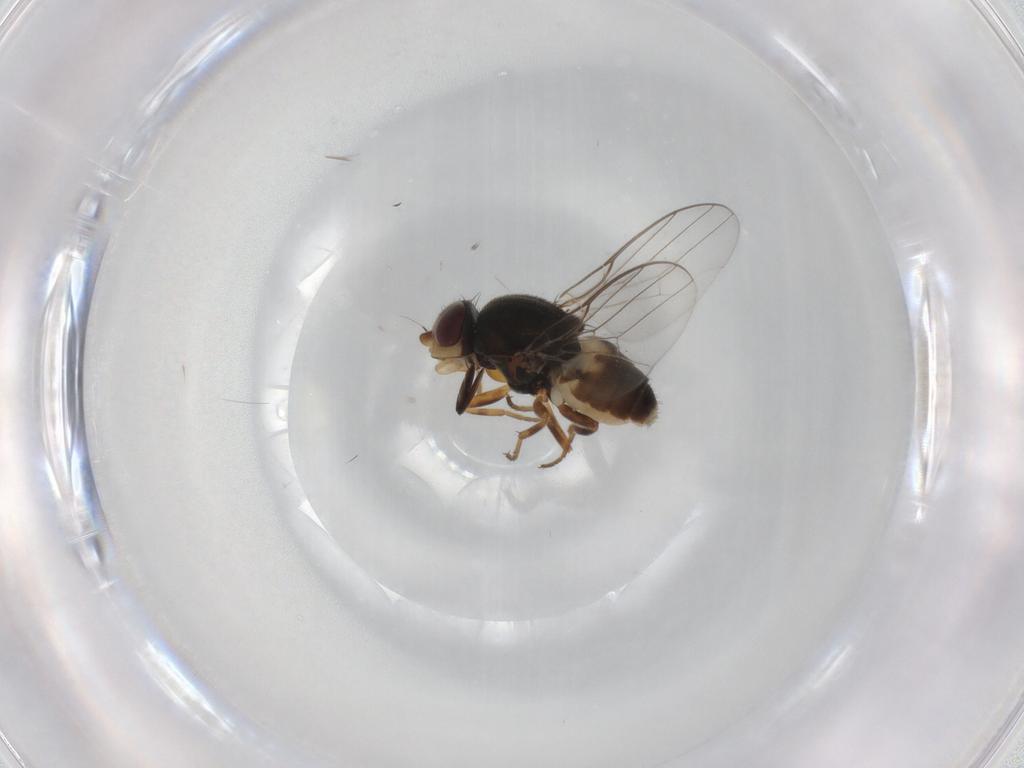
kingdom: Animalia
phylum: Arthropoda
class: Insecta
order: Diptera
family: Chloropidae
